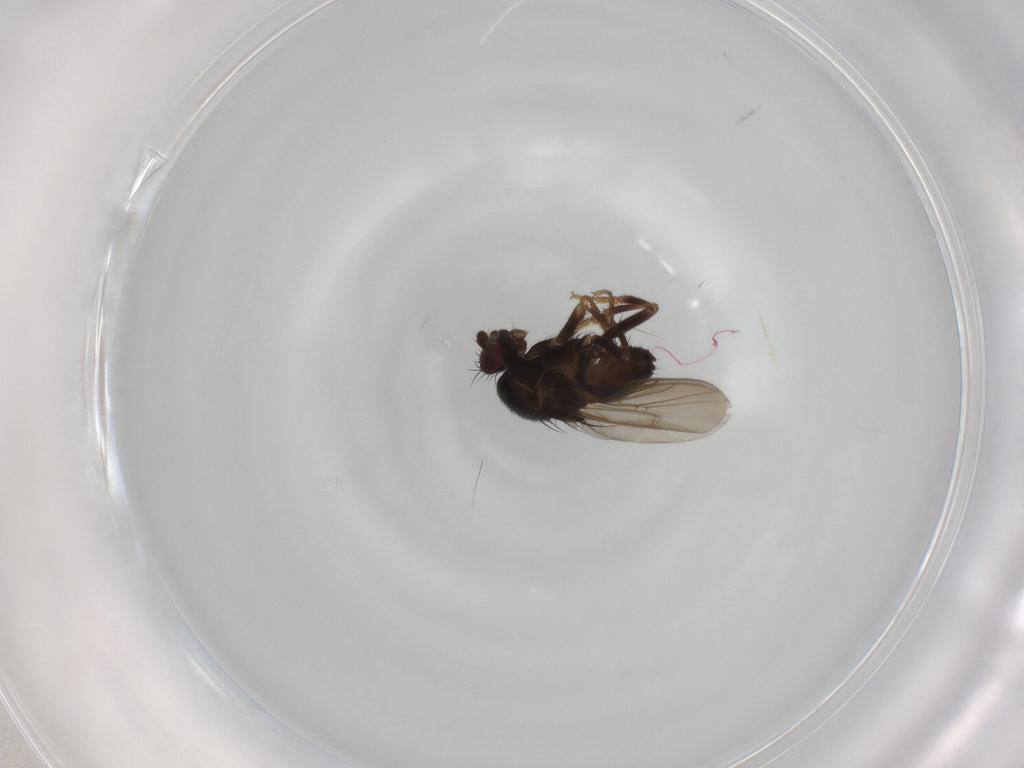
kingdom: Animalia
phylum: Arthropoda
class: Insecta
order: Diptera
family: Sphaeroceridae
